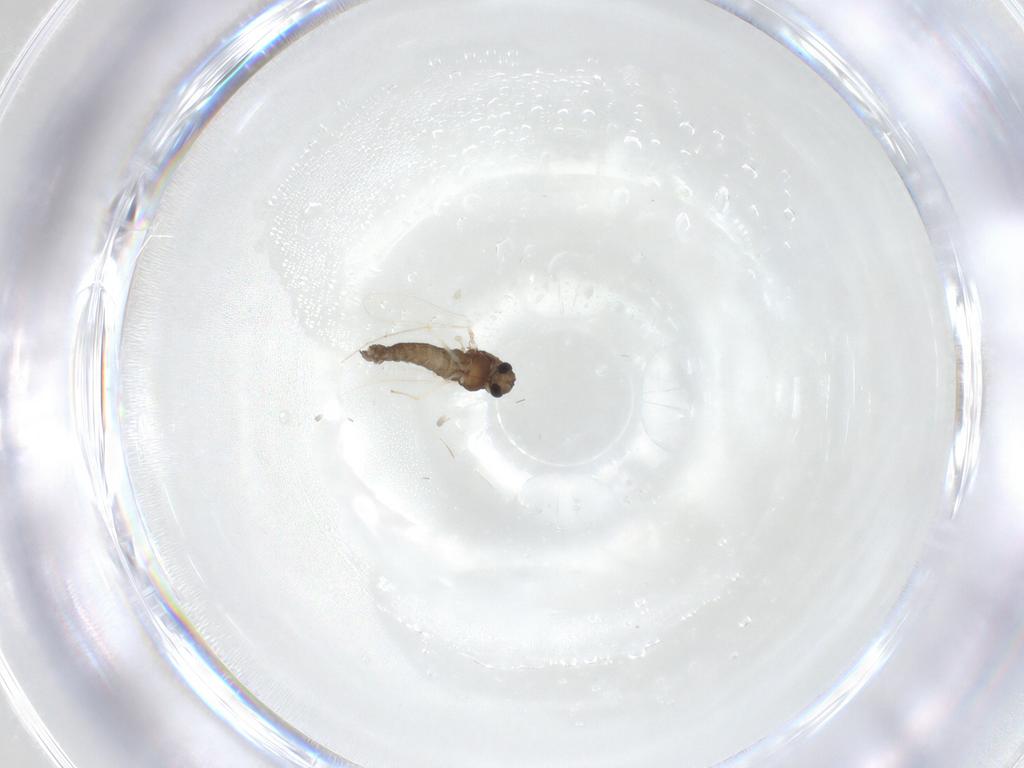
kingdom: Animalia
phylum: Arthropoda
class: Insecta
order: Diptera
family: Chironomidae
